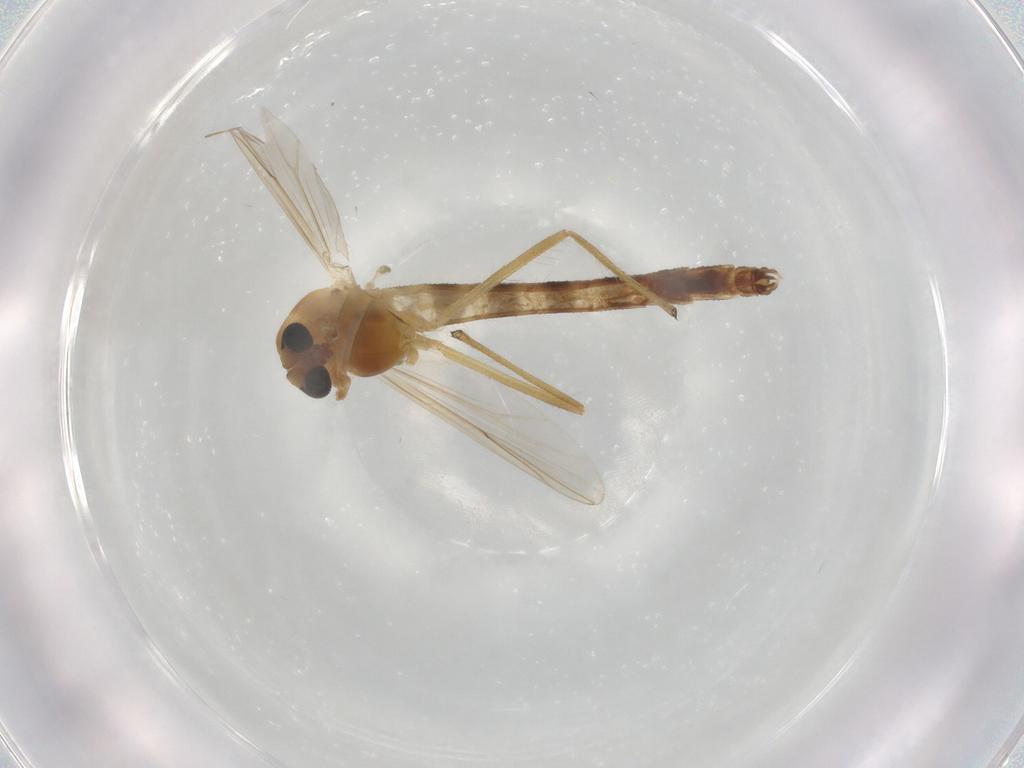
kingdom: Animalia
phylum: Arthropoda
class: Insecta
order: Diptera
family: Chironomidae
